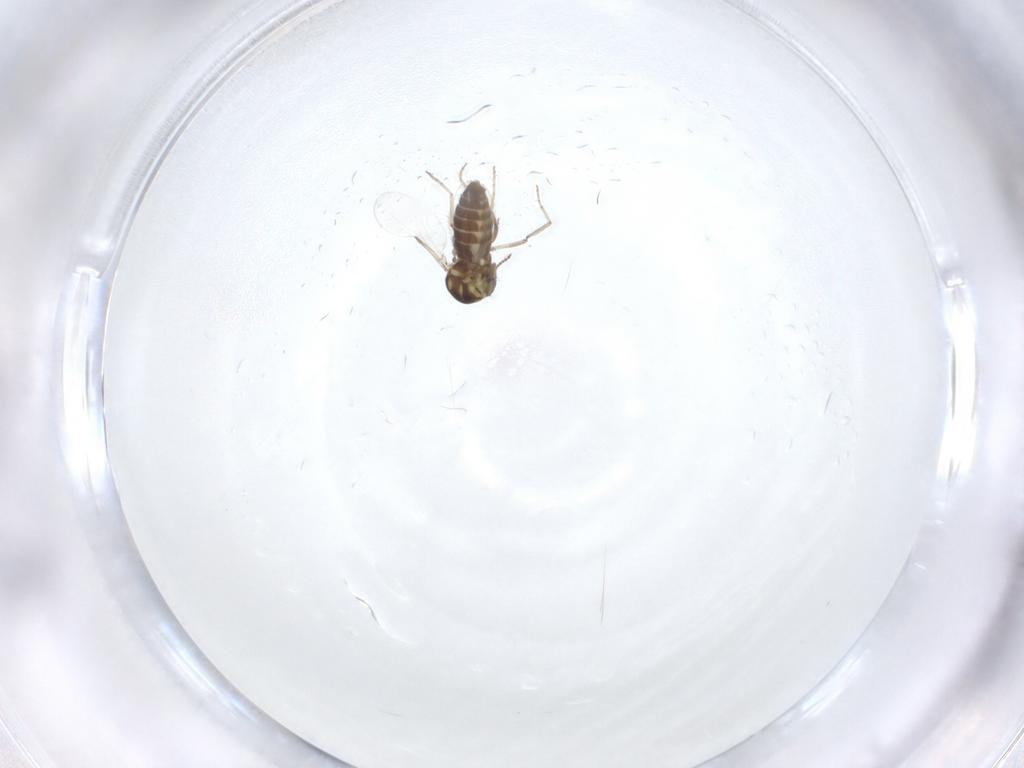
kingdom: Animalia
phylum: Arthropoda
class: Insecta
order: Diptera
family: Ceratopogonidae
